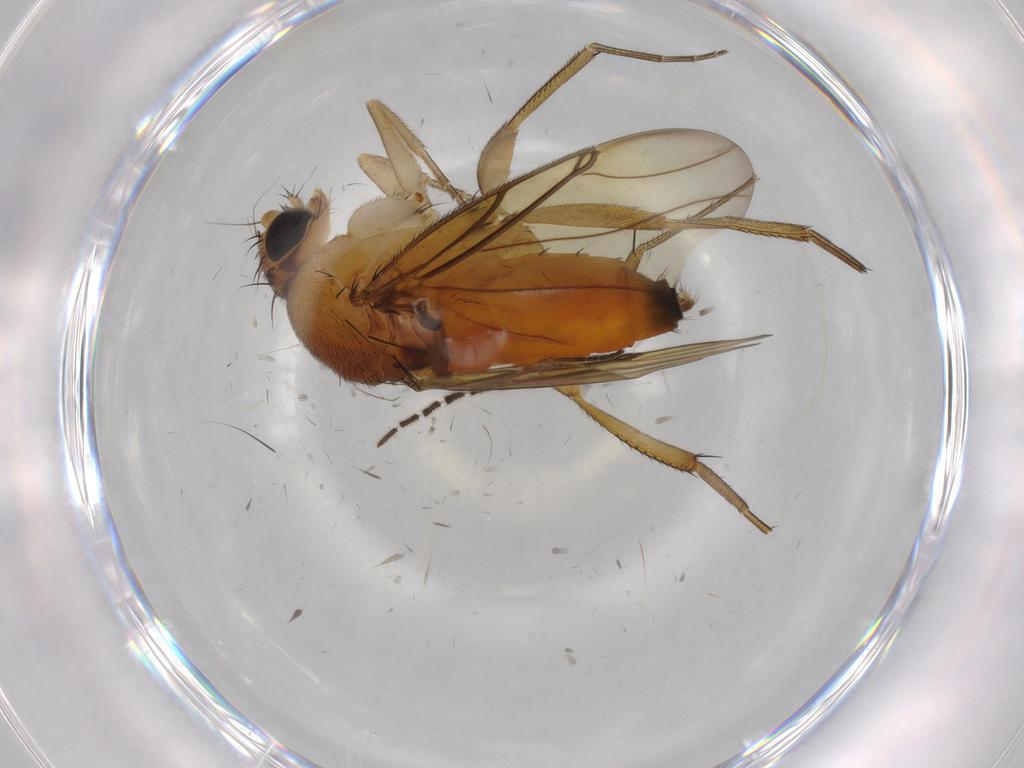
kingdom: Animalia
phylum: Arthropoda
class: Insecta
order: Diptera
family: Phoridae
